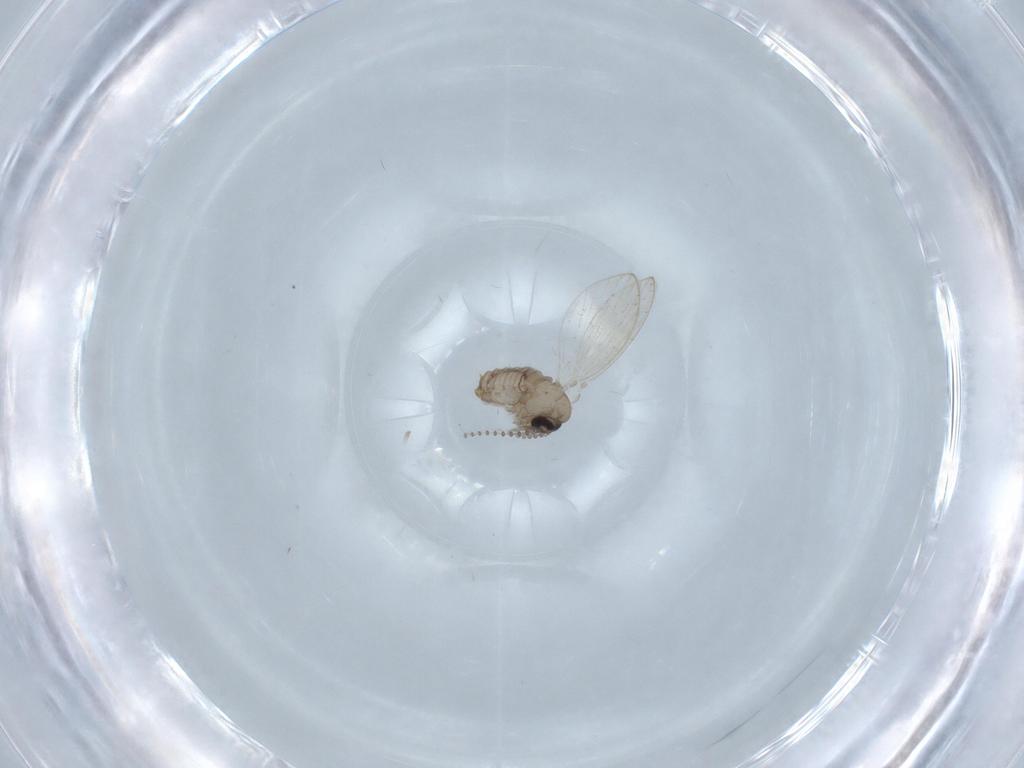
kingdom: Animalia
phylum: Arthropoda
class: Insecta
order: Diptera
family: Psychodidae
